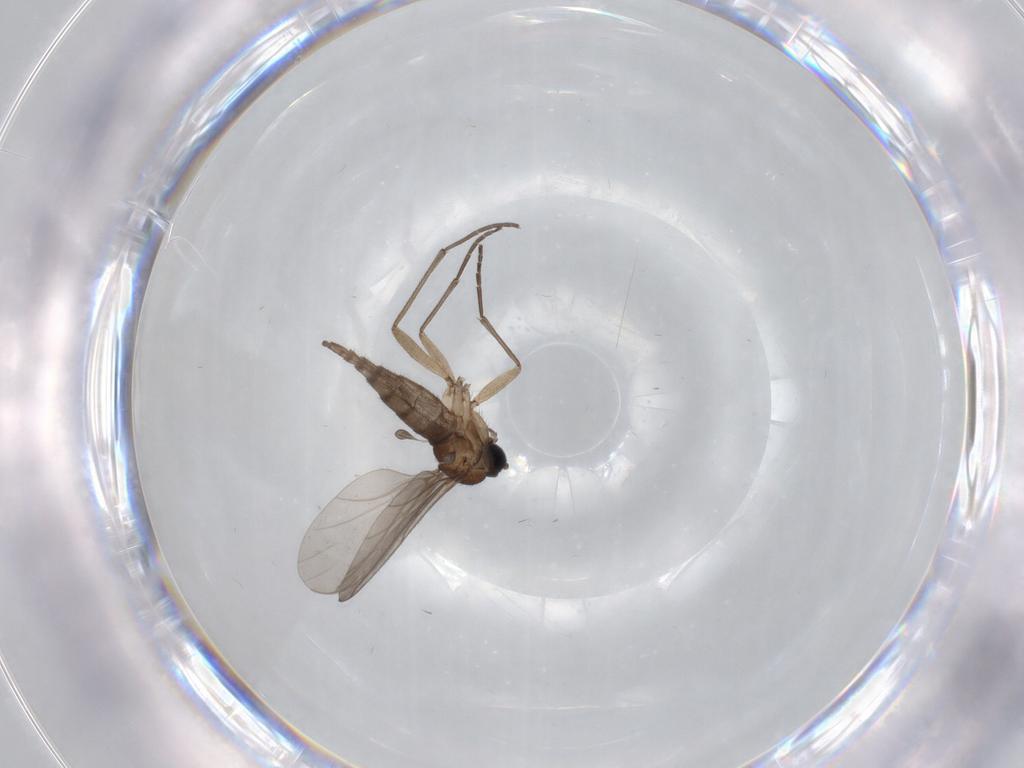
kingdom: Animalia
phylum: Arthropoda
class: Insecta
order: Diptera
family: Sciaridae
